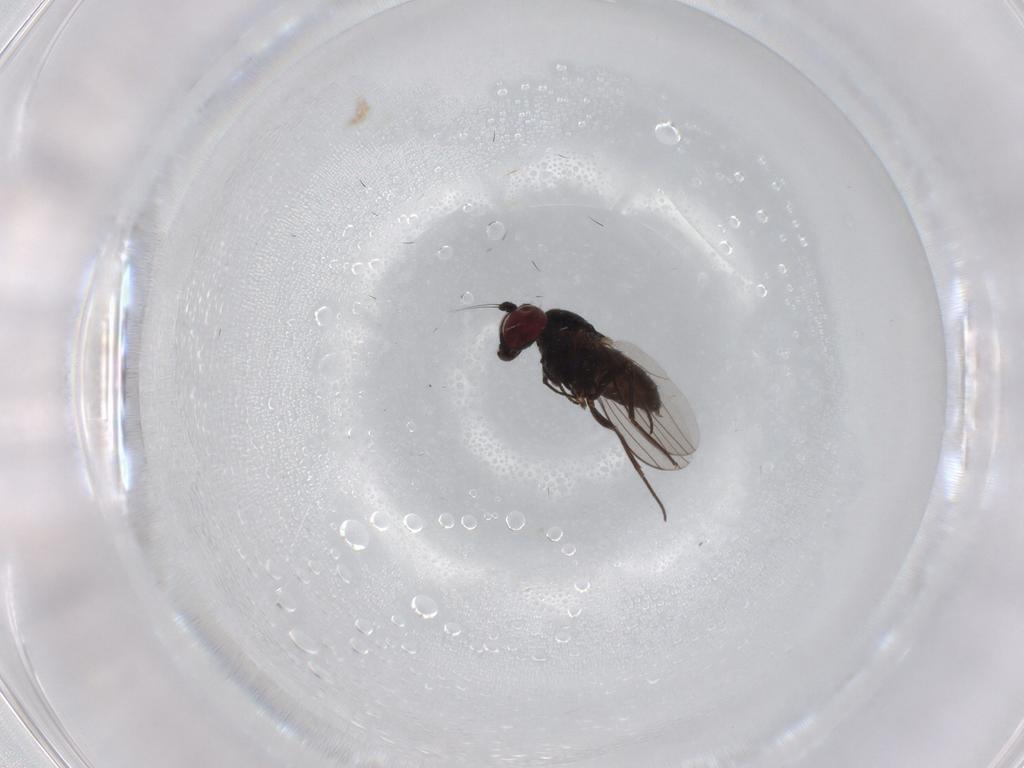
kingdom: Animalia
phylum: Arthropoda
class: Insecta
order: Diptera
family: Dolichopodidae
